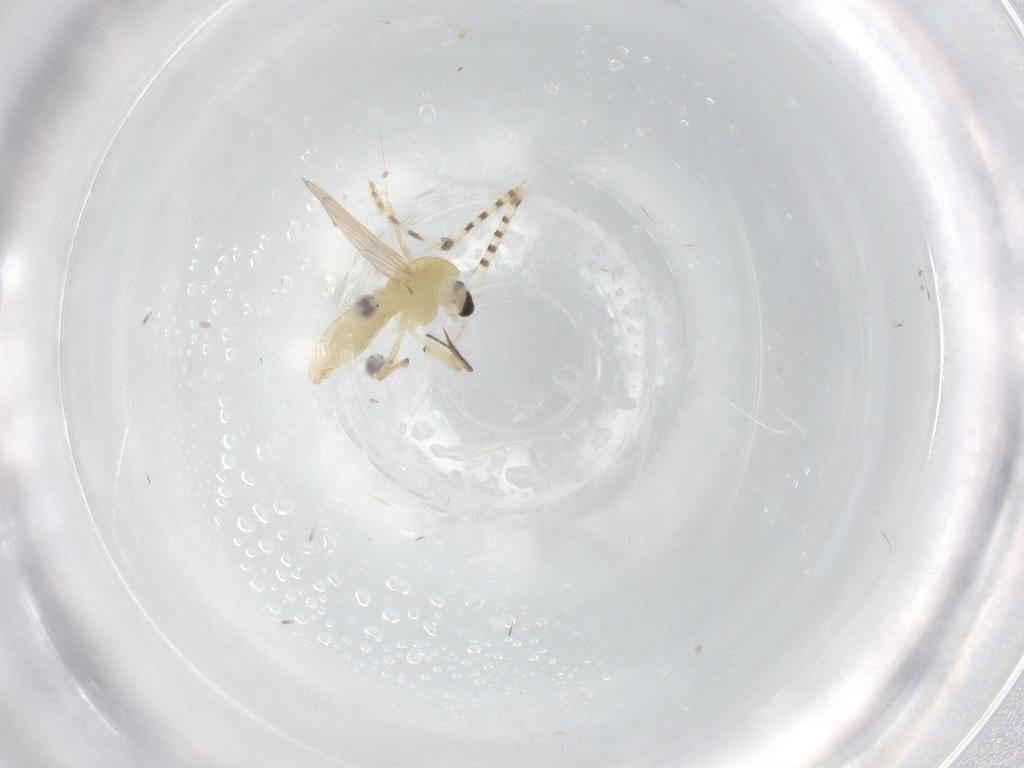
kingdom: Animalia
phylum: Arthropoda
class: Insecta
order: Diptera
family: Chironomidae
